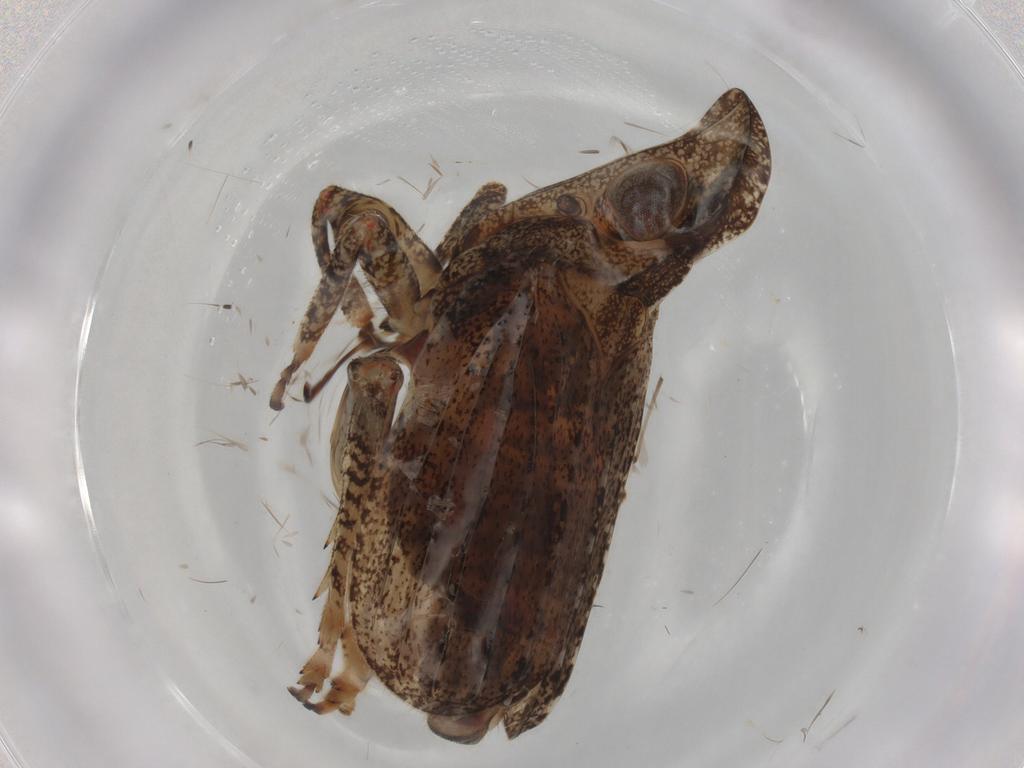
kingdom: Animalia
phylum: Arthropoda
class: Insecta
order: Hemiptera
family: Tropiduchidae
